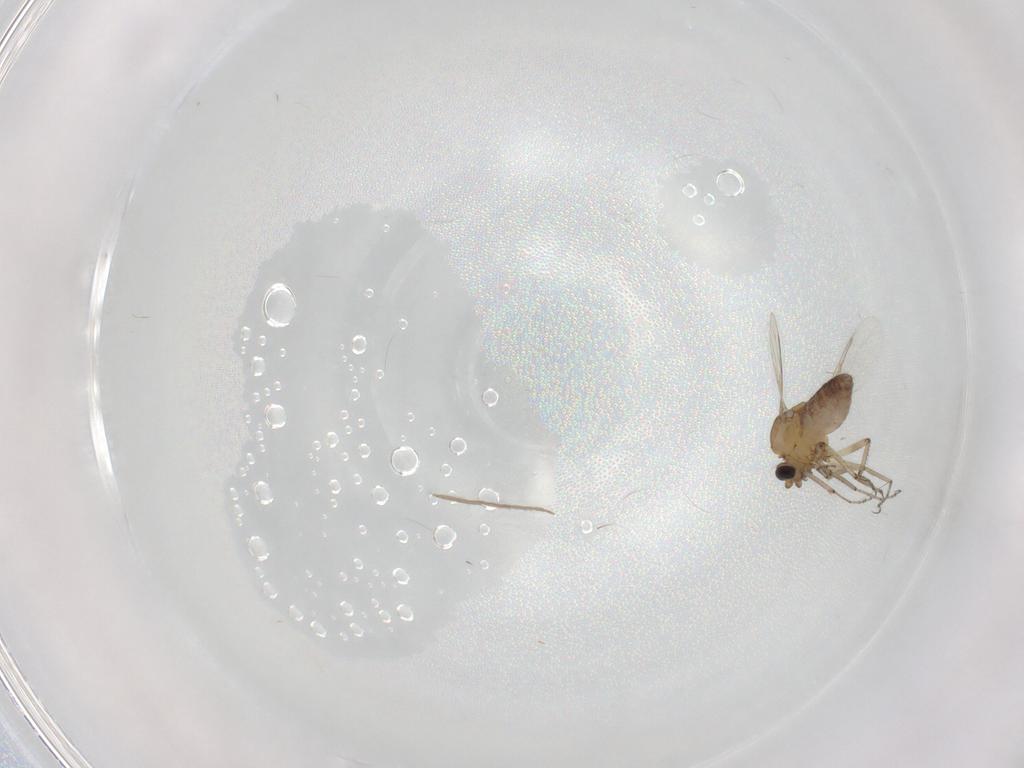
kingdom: Animalia
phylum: Arthropoda
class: Insecta
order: Diptera
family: Ceratopogonidae
